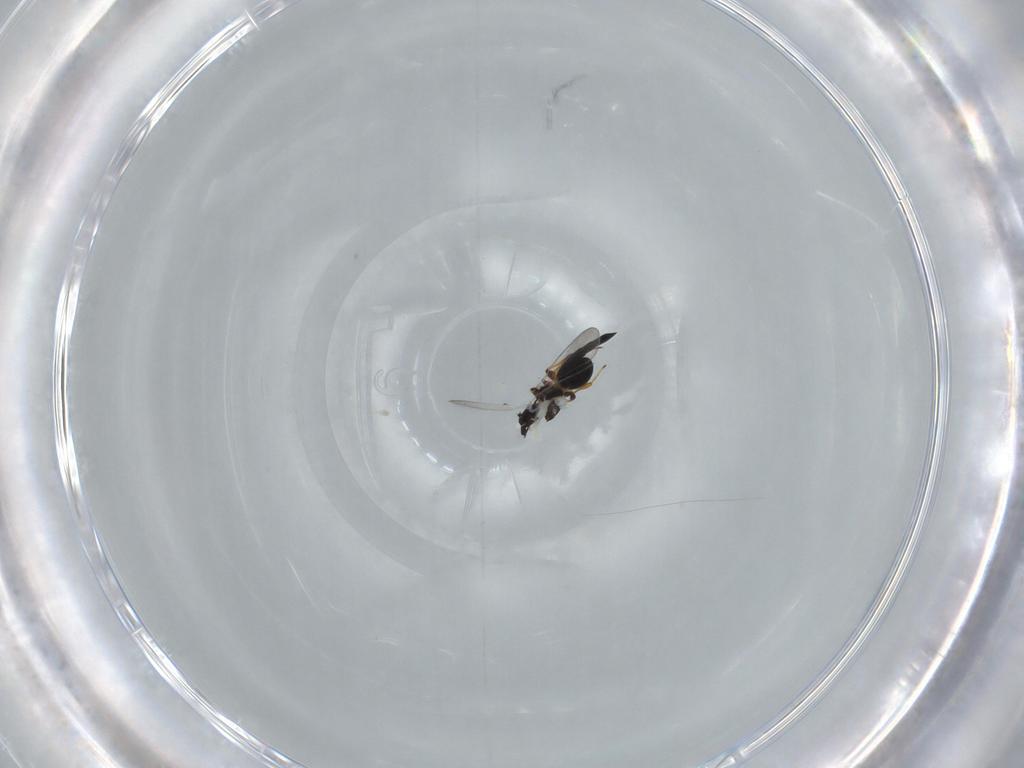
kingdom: Animalia
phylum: Arthropoda
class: Insecta
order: Hymenoptera
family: Platygastridae
